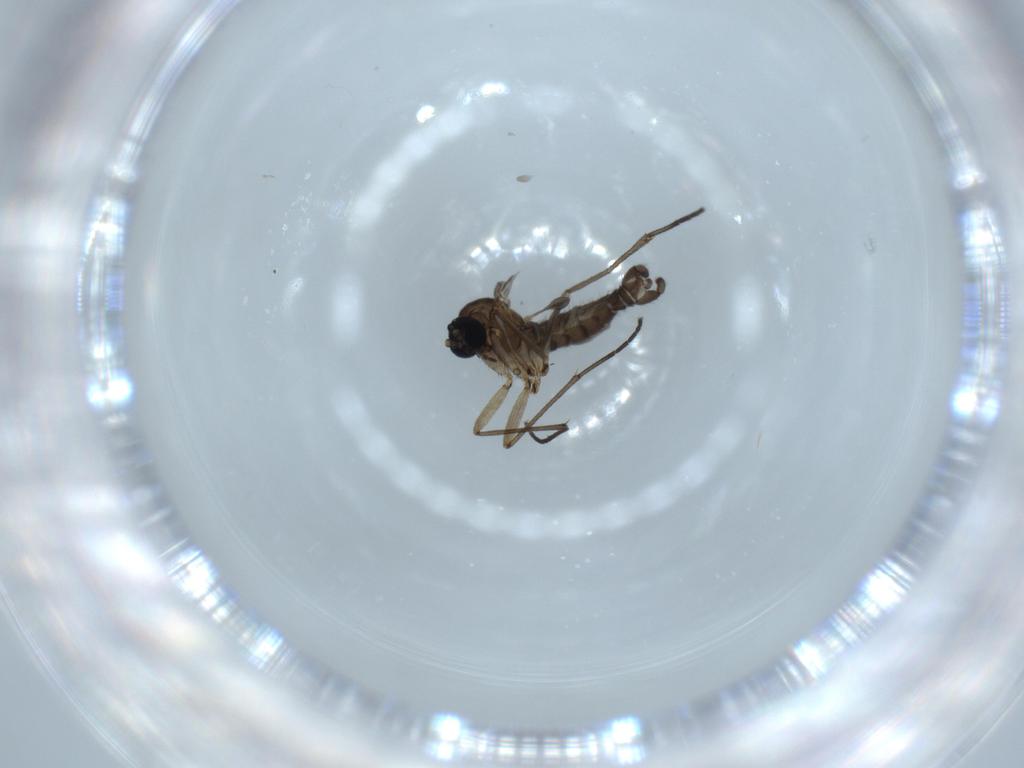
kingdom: Animalia
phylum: Arthropoda
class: Insecta
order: Diptera
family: Sciaridae
